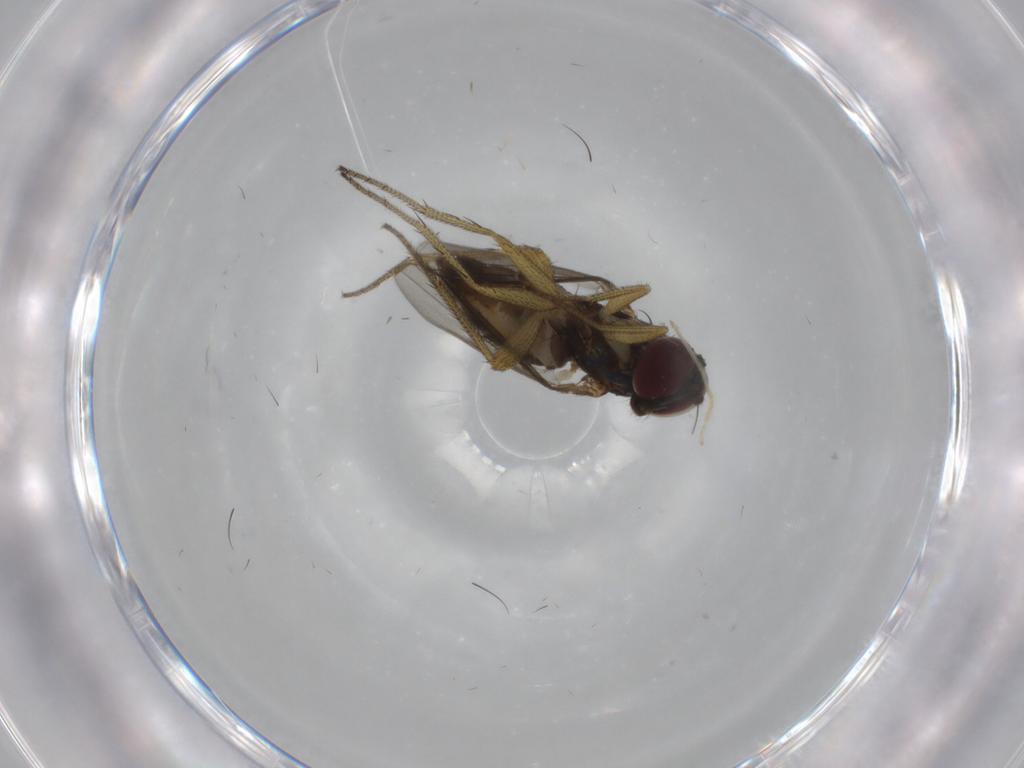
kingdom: Animalia
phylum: Arthropoda
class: Insecta
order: Diptera
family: Dolichopodidae
